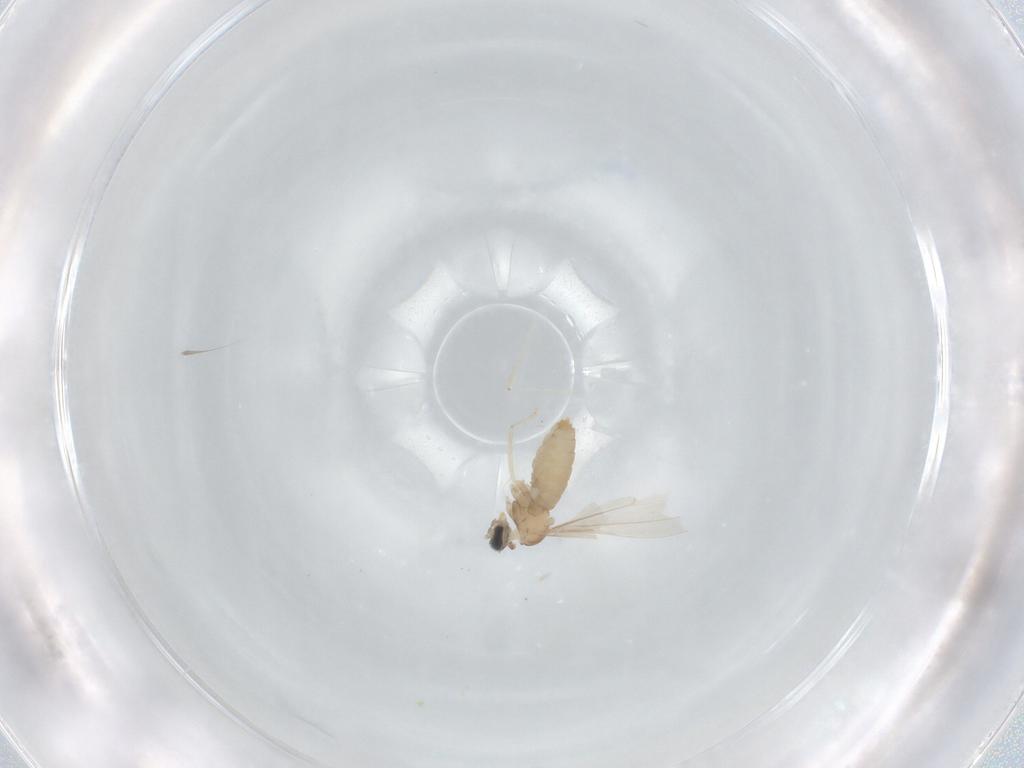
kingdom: Animalia
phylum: Arthropoda
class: Insecta
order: Diptera
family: Cecidomyiidae
